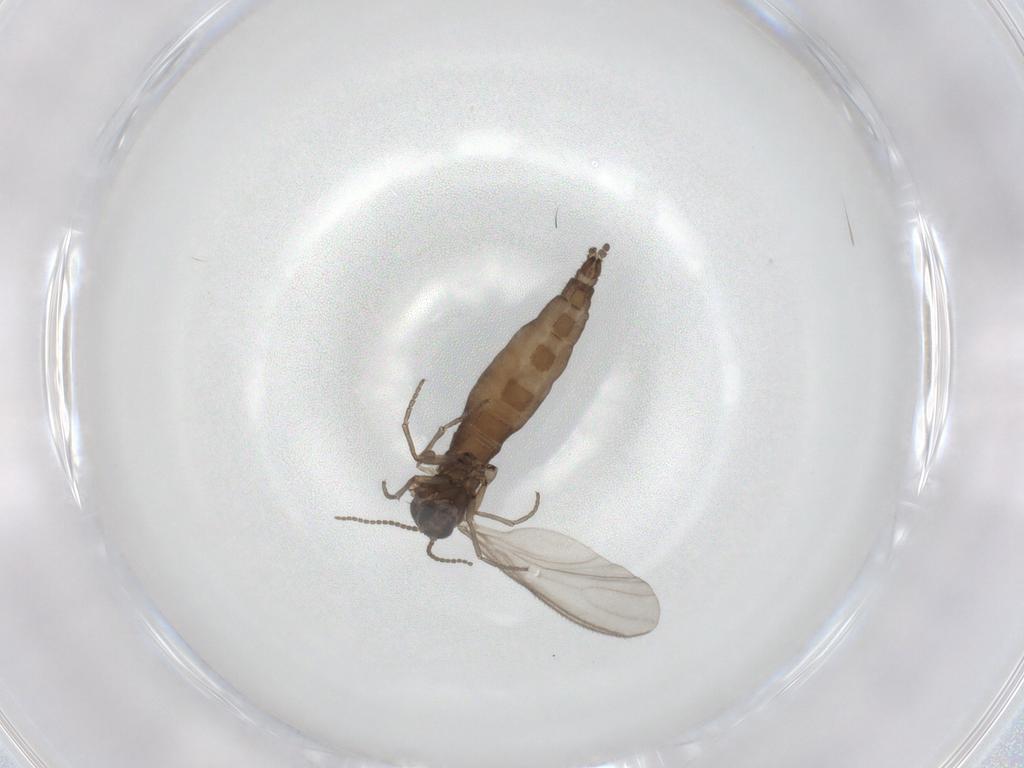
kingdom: Animalia
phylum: Arthropoda
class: Insecta
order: Diptera
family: Sciaridae
